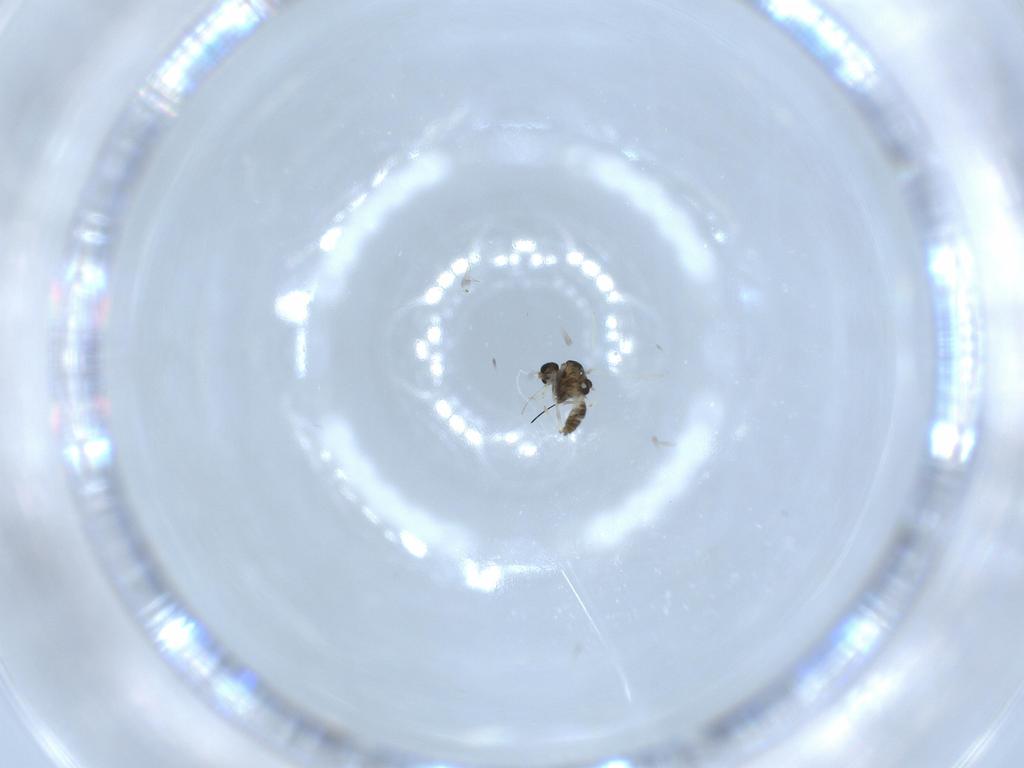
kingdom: Animalia
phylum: Arthropoda
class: Insecta
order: Diptera
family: Chironomidae
